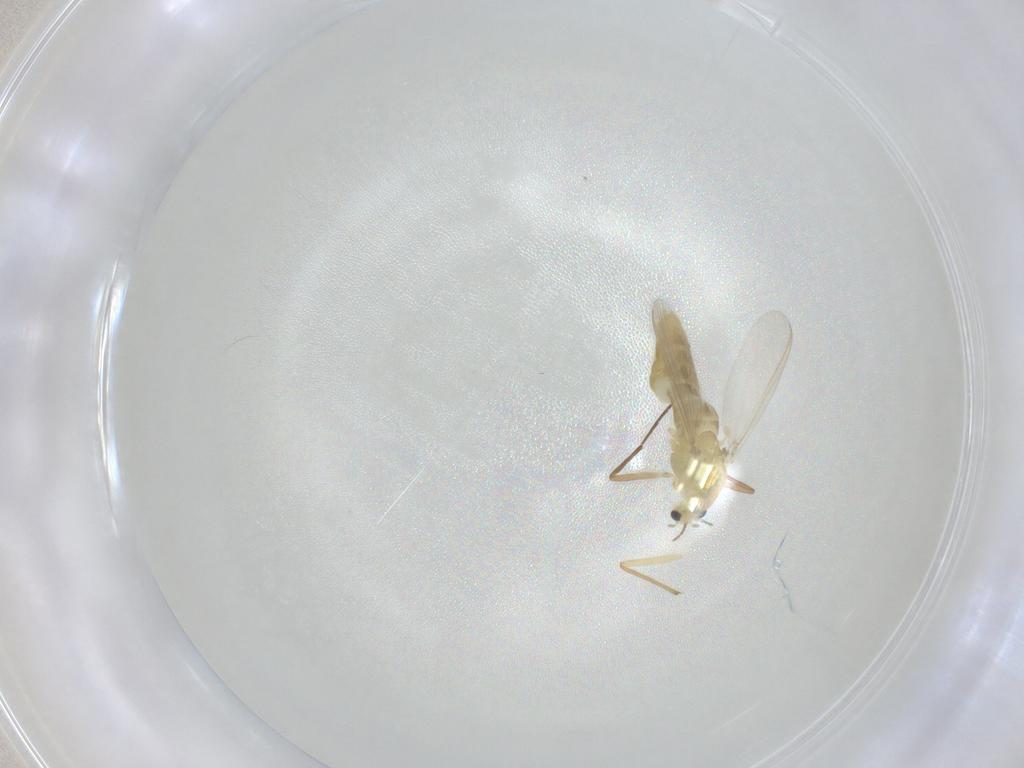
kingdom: Animalia
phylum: Arthropoda
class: Insecta
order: Diptera
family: Chironomidae
